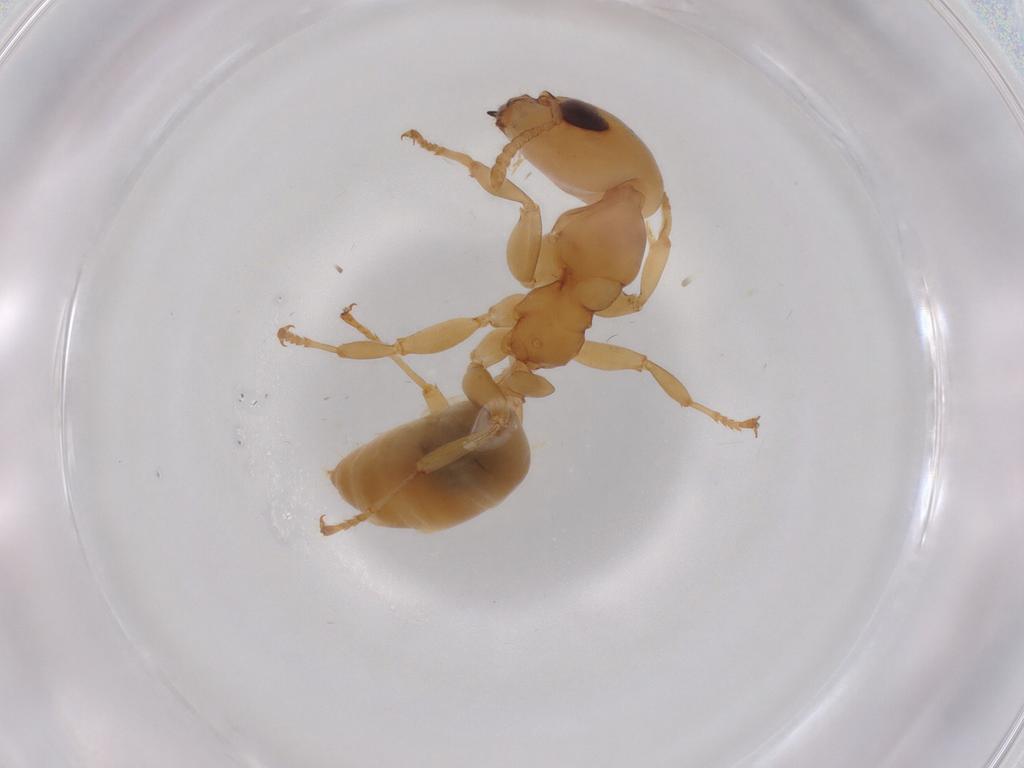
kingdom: Animalia
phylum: Arthropoda
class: Insecta
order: Hymenoptera
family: Formicidae
